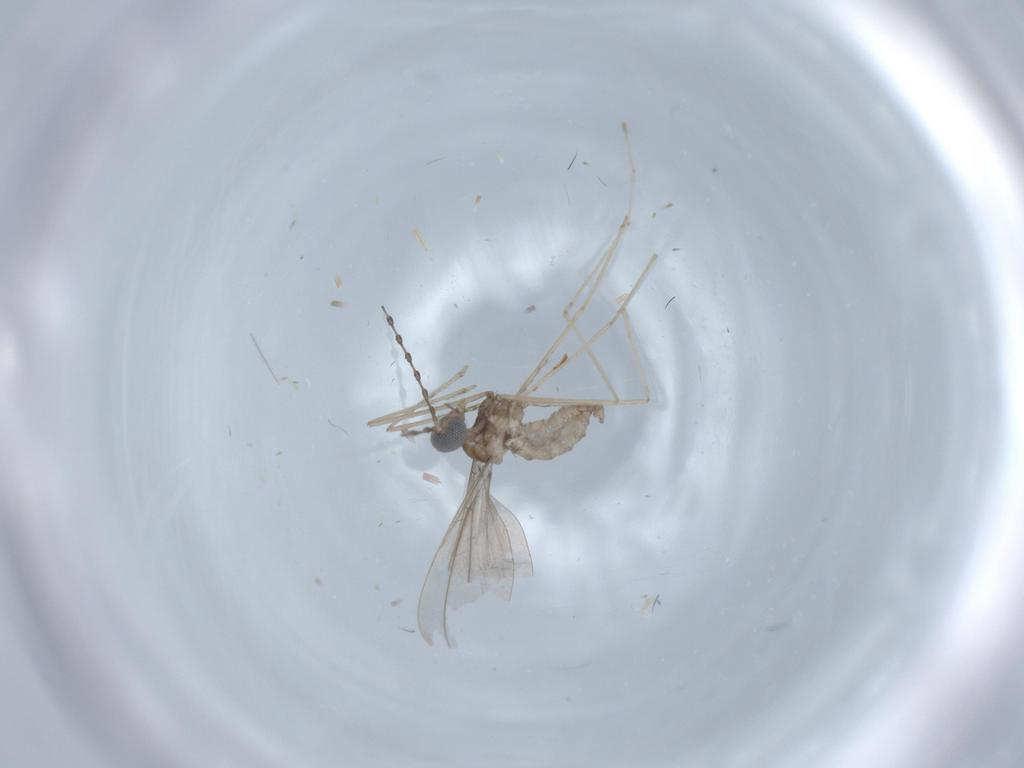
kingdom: Animalia
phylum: Arthropoda
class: Insecta
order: Diptera
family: Cecidomyiidae
